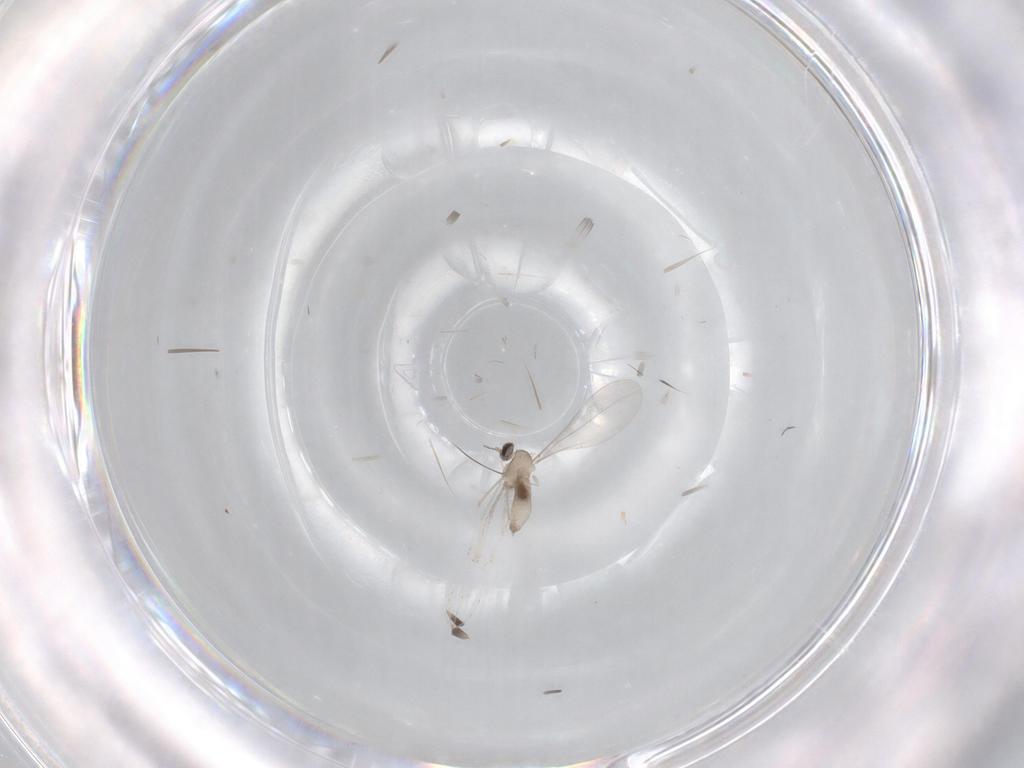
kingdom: Animalia
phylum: Arthropoda
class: Insecta
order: Diptera
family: Cecidomyiidae
